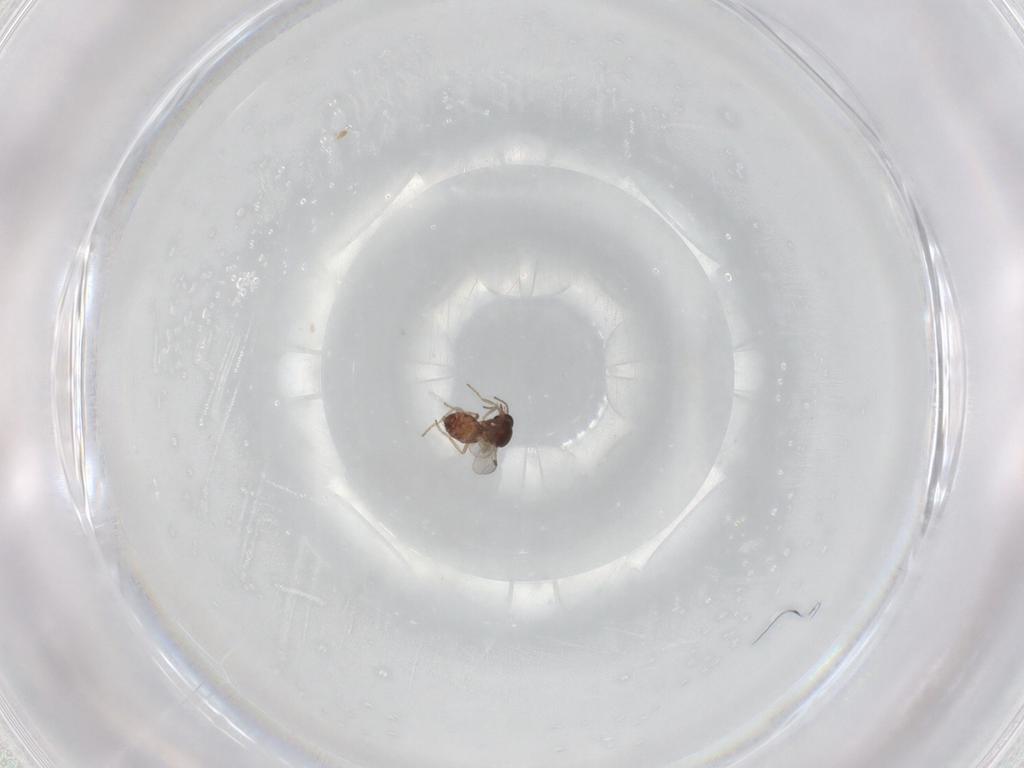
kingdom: Animalia
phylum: Arthropoda
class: Insecta
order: Diptera
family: Ceratopogonidae
